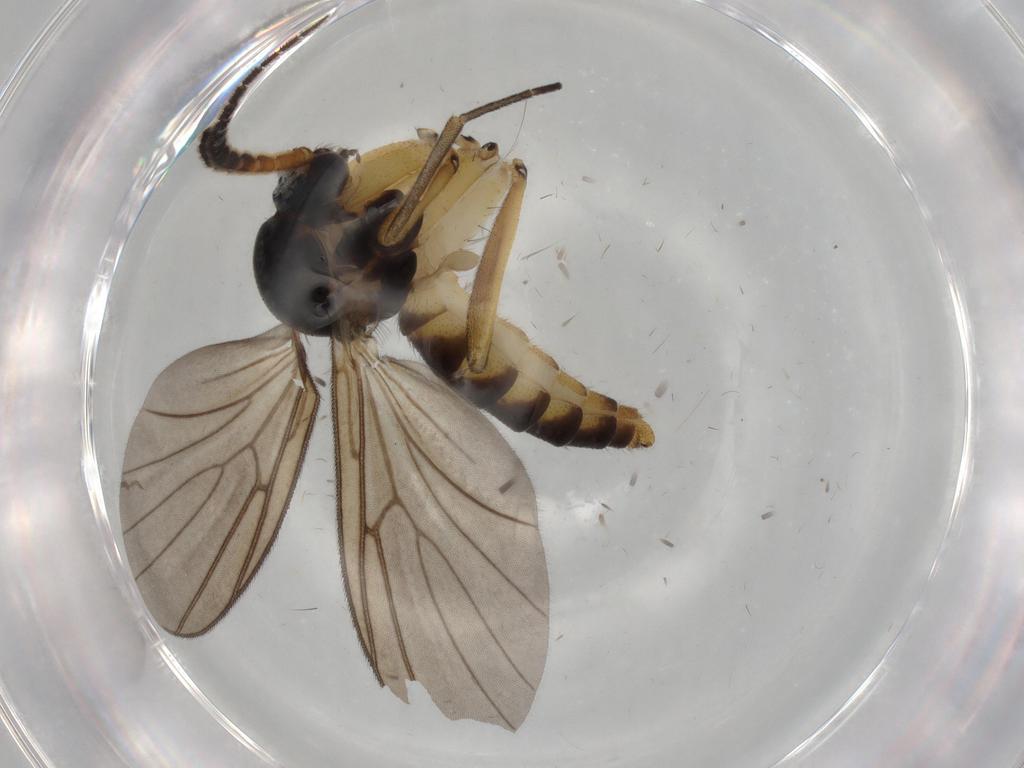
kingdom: Animalia
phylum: Arthropoda
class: Insecta
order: Diptera
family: Mycetophilidae
